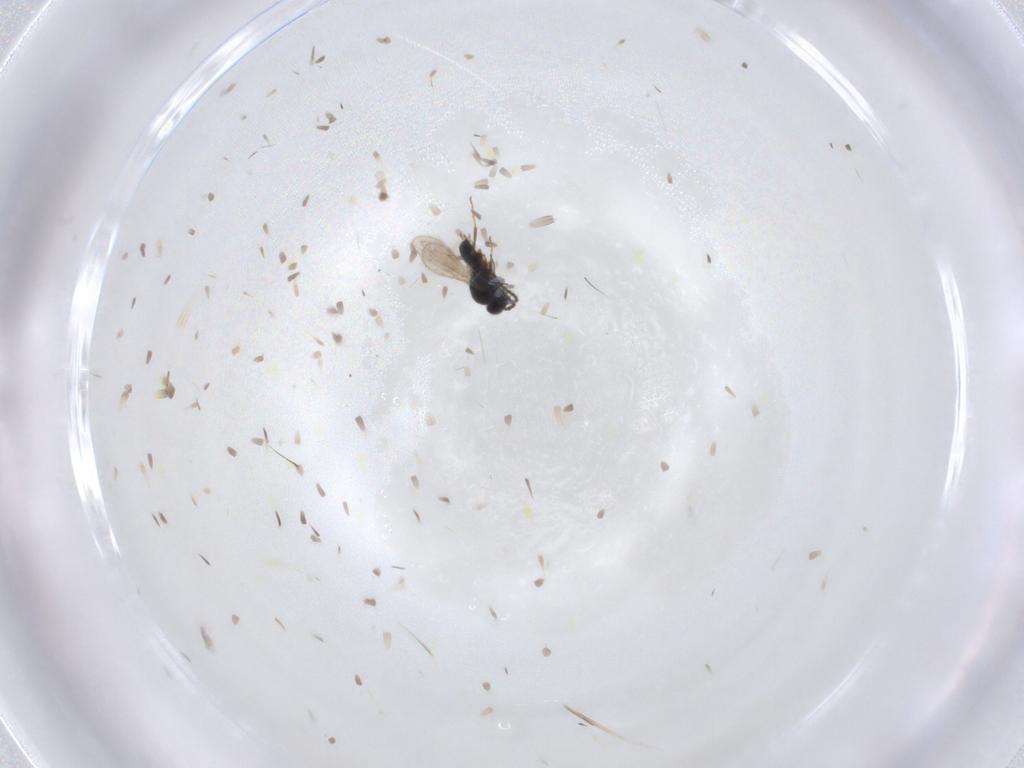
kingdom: Animalia
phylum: Arthropoda
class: Insecta
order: Hymenoptera
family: Scelionidae
